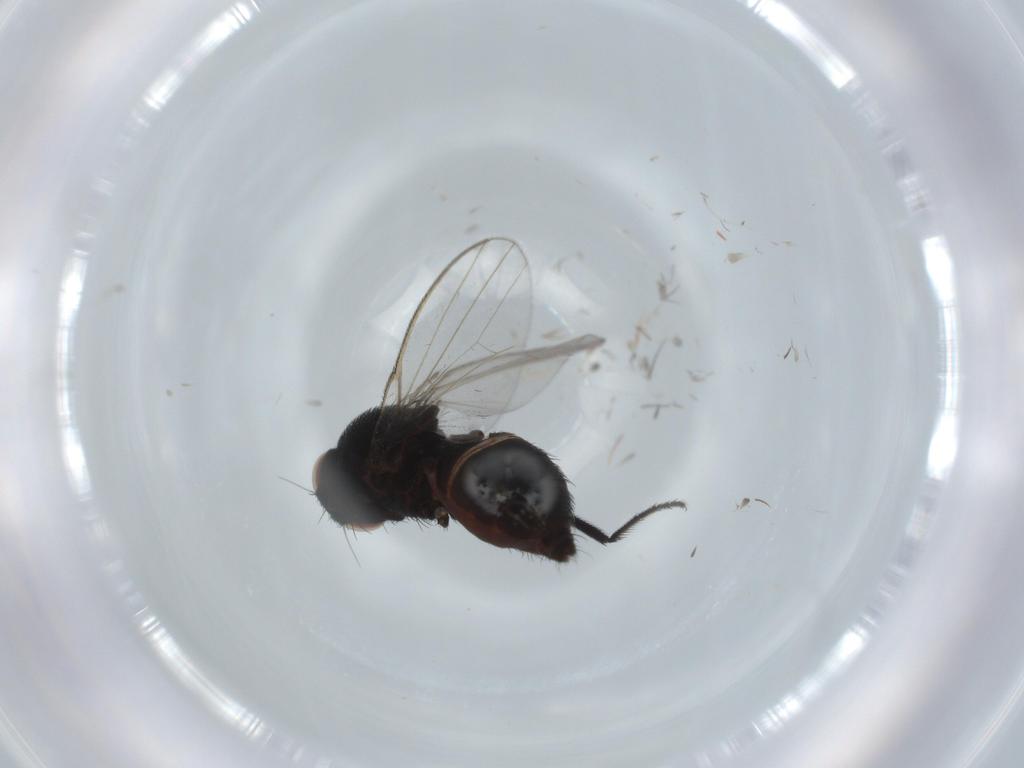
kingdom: Animalia
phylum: Arthropoda
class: Insecta
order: Diptera
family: Milichiidae
